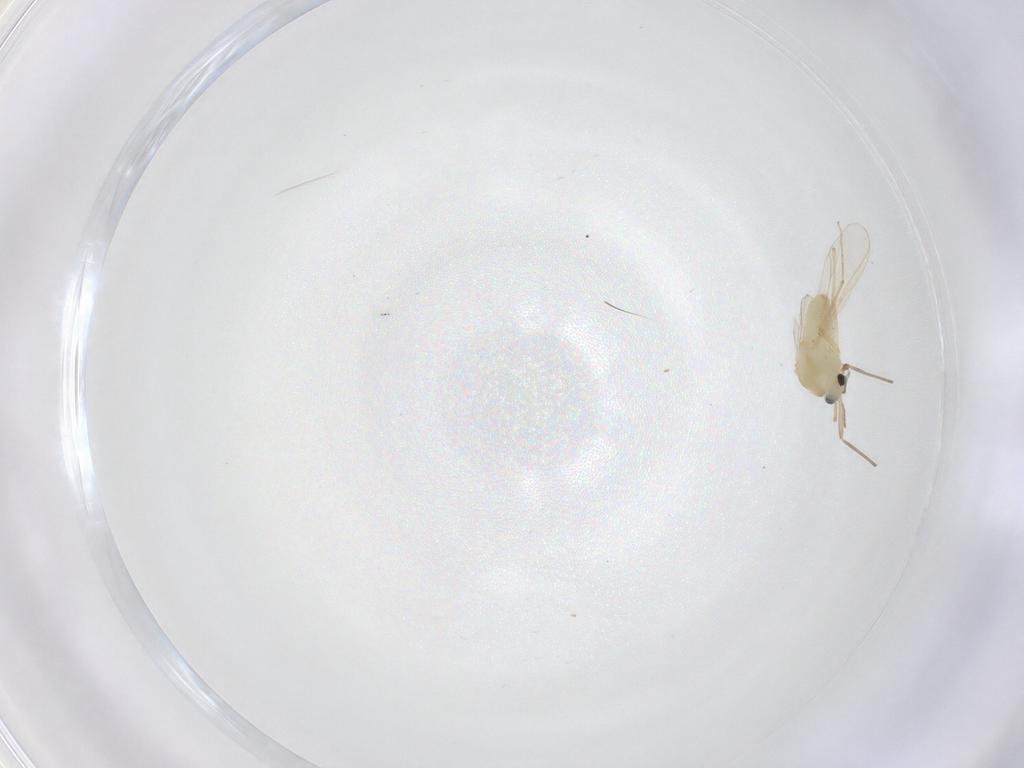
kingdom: Animalia
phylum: Arthropoda
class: Insecta
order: Diptera
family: Chironomidae
